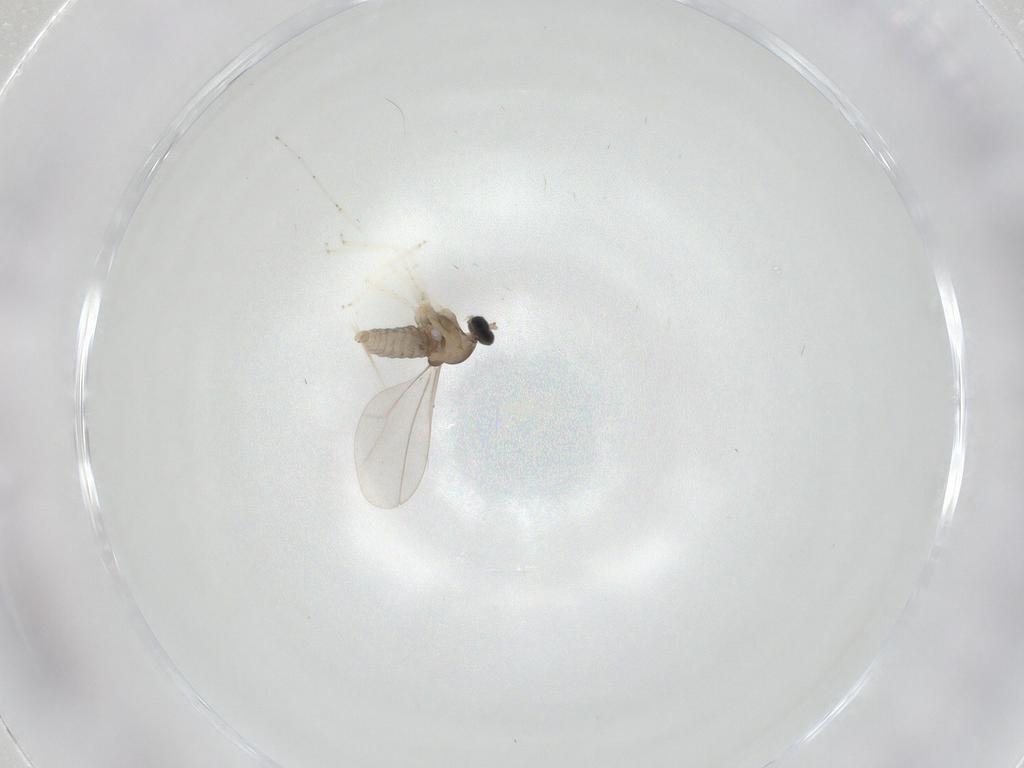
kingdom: Animalia
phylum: Arthropoda
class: Insecta
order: Diptera
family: Cecidomyiidae
